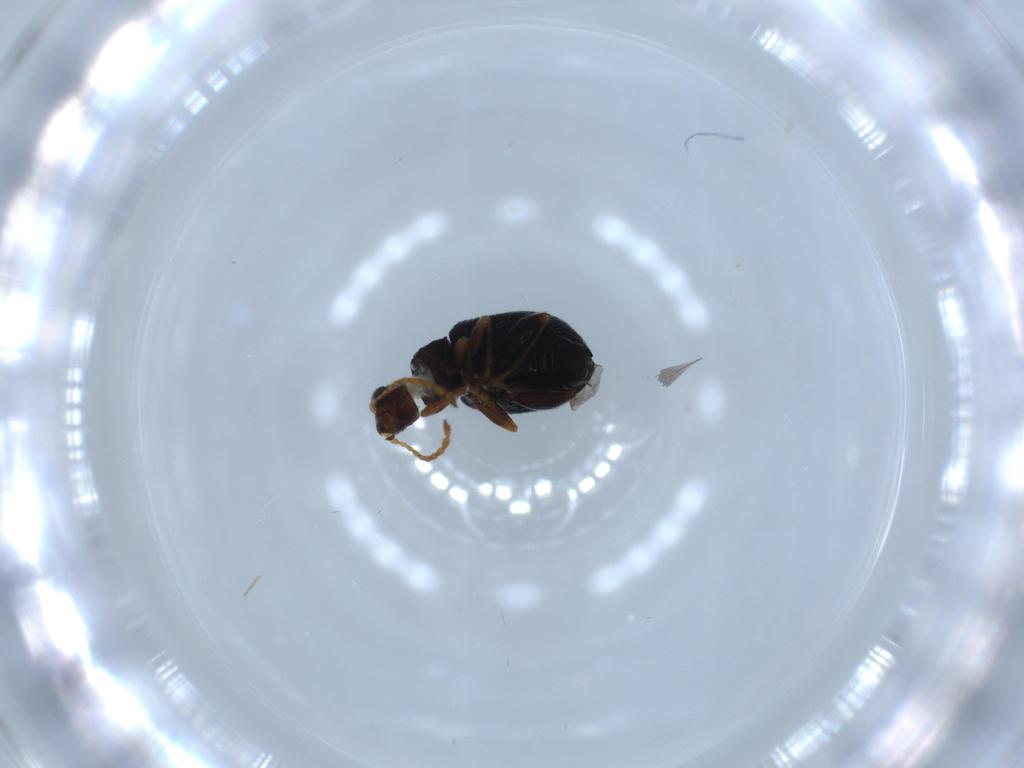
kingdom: Animalia
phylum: Arthropoda
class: Insecta
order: Coleoptera
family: Chrysomelidae
